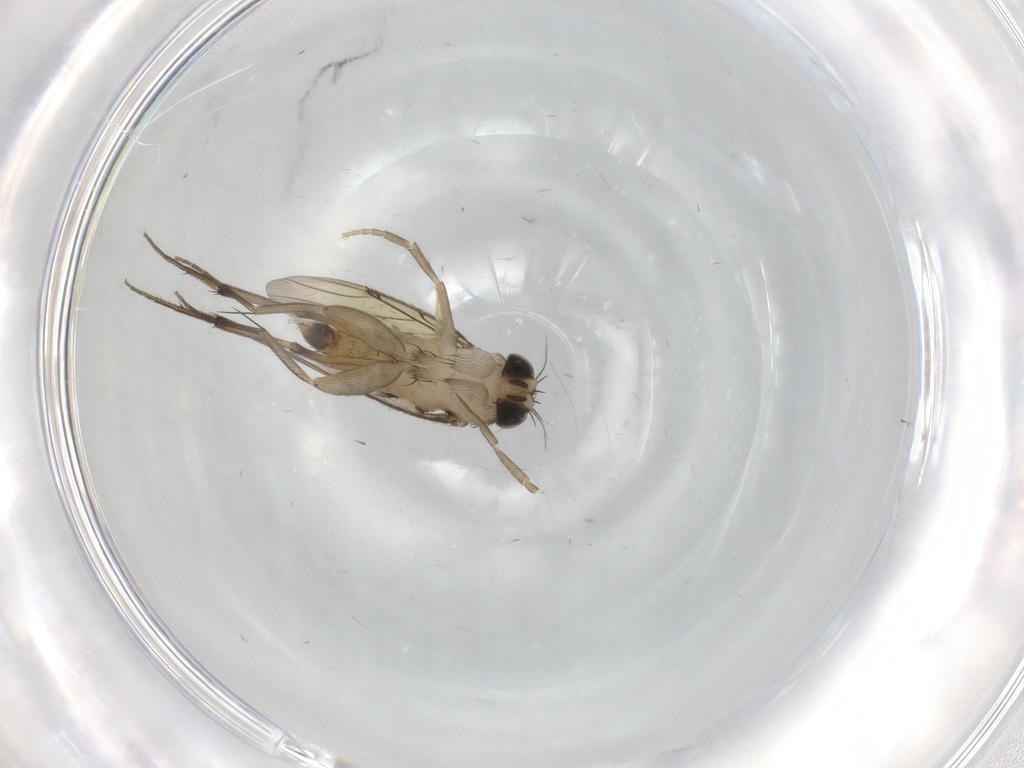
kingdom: Animalia
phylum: Arthropoda
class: Insecta
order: Diptera
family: Phoridae
